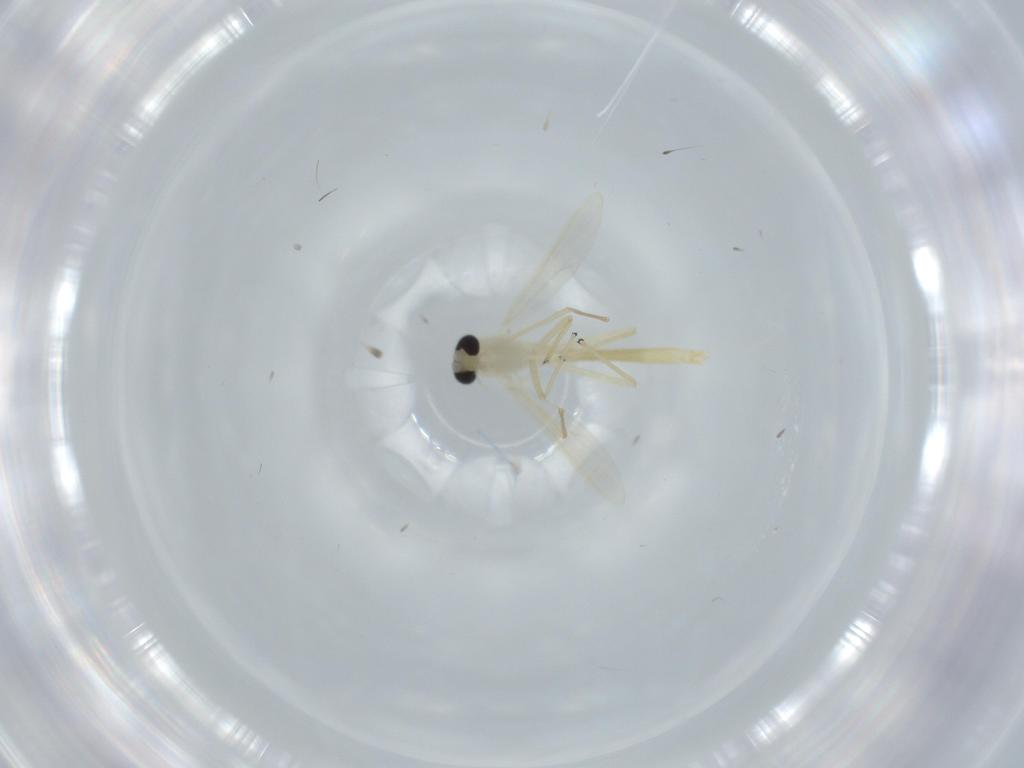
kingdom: Animalia
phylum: Arthropoda
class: Insecta
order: Diptera
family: Chironomidae
